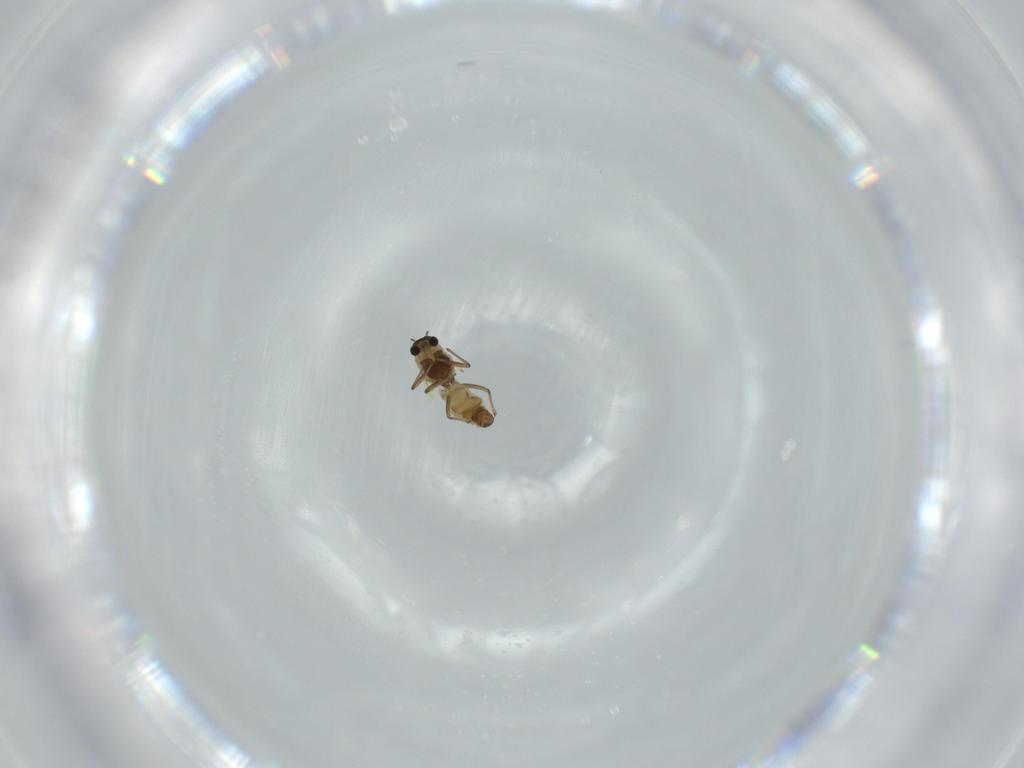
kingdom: Animalia
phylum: Arthropoda
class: Insecta
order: Diptera
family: Chironomidae
